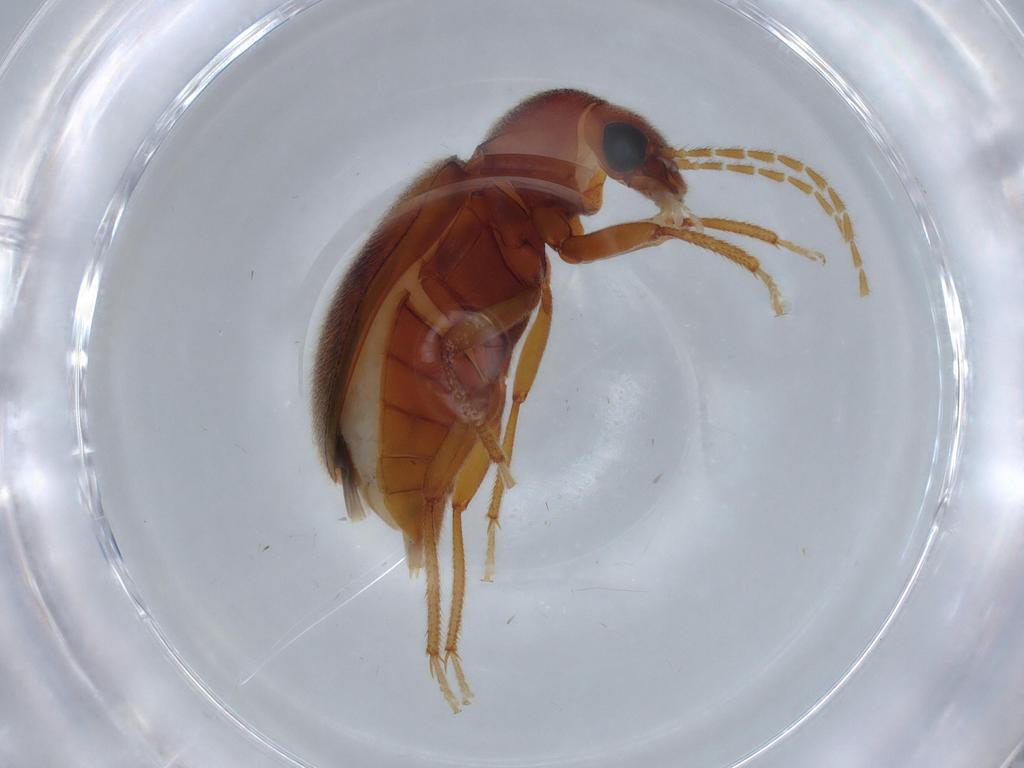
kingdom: Animalia
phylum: Arthropoda
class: Insecta
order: Coleoptera
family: Ptilodactylidae
